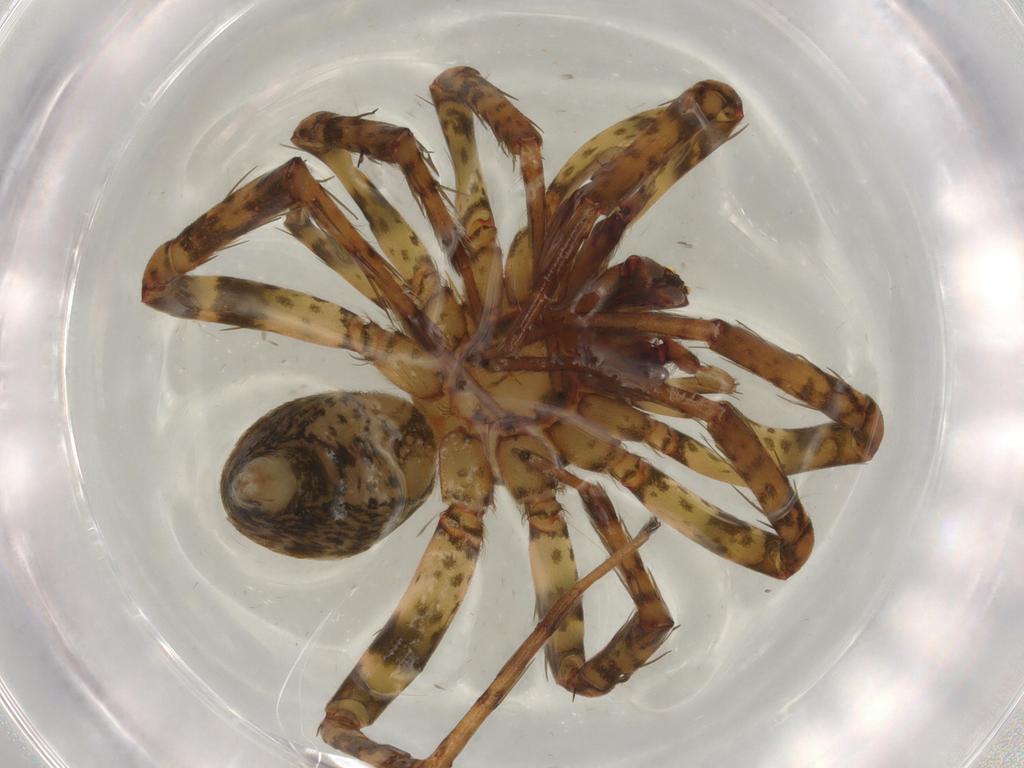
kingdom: Animalia
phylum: Arthropoda
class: Arachnida
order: Araneae
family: Anyphaenidae
